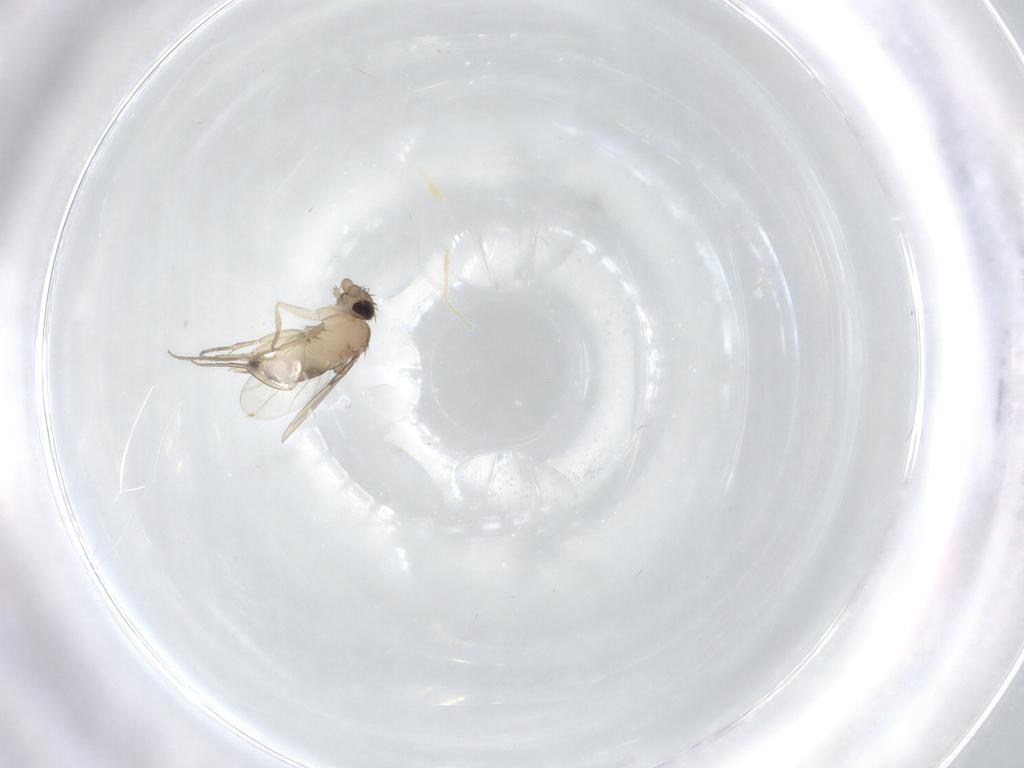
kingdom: Animalia
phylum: Arthropoda
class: Insecta
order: Diptera
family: Phoridae
